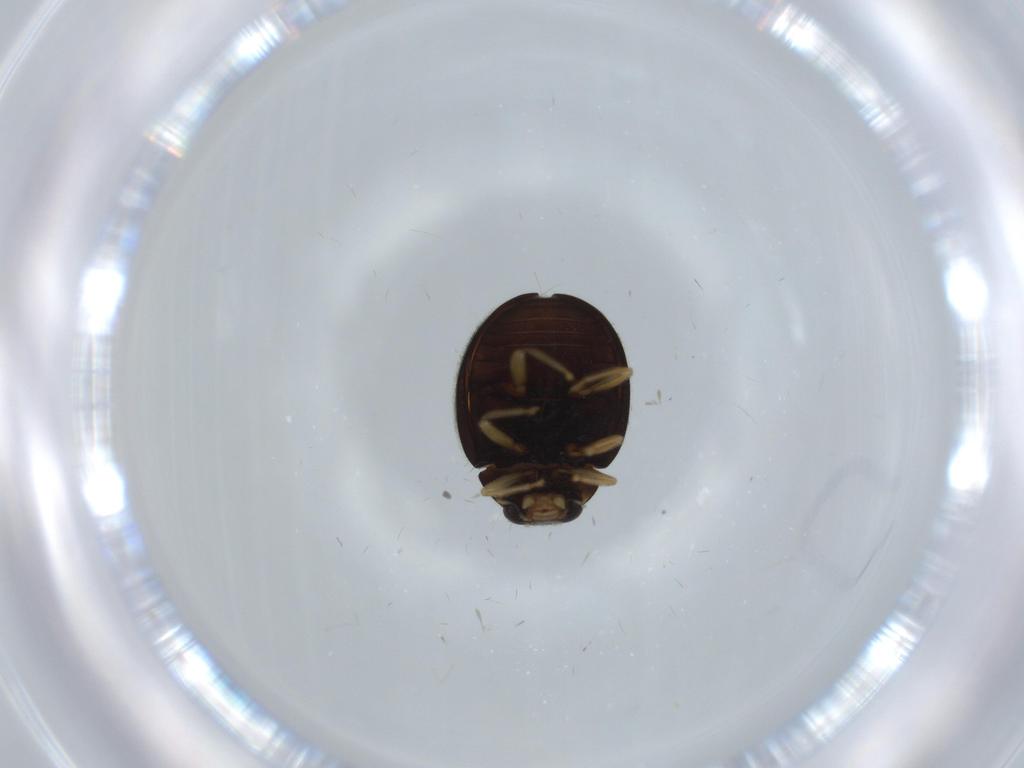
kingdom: Animalia
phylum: Arthropoda
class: Insecta
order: Coleoptera
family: Coccinellidae
